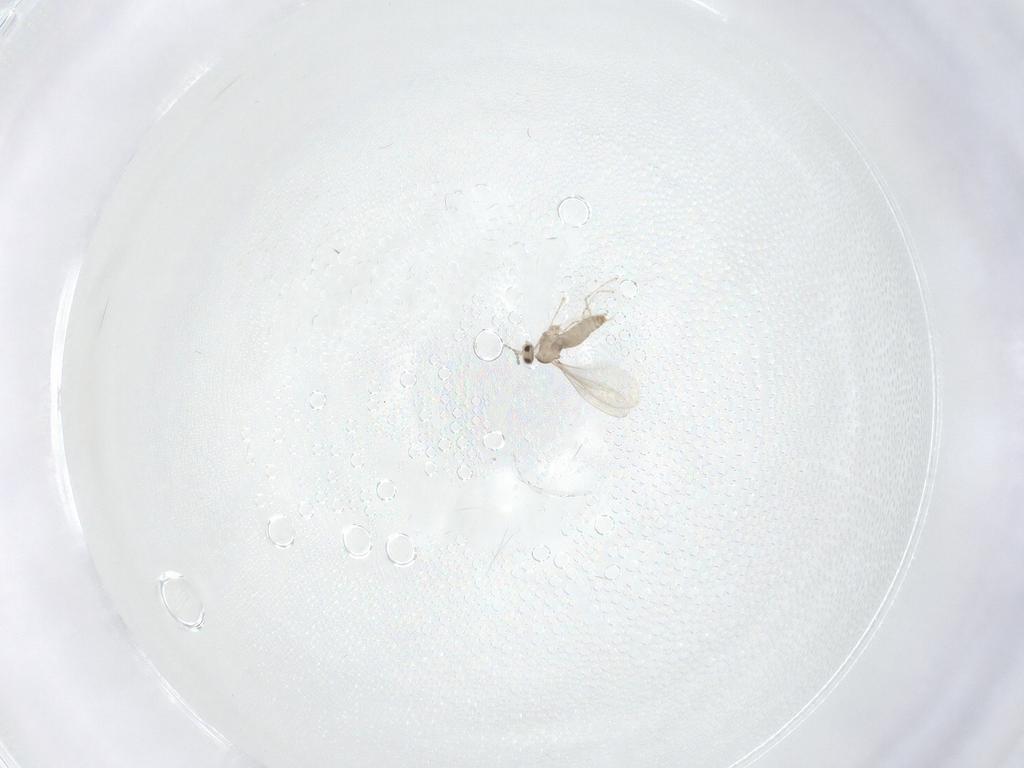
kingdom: Animalia
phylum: Arthropoda
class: Insecta
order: Diptera
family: Cecidomyiidae
